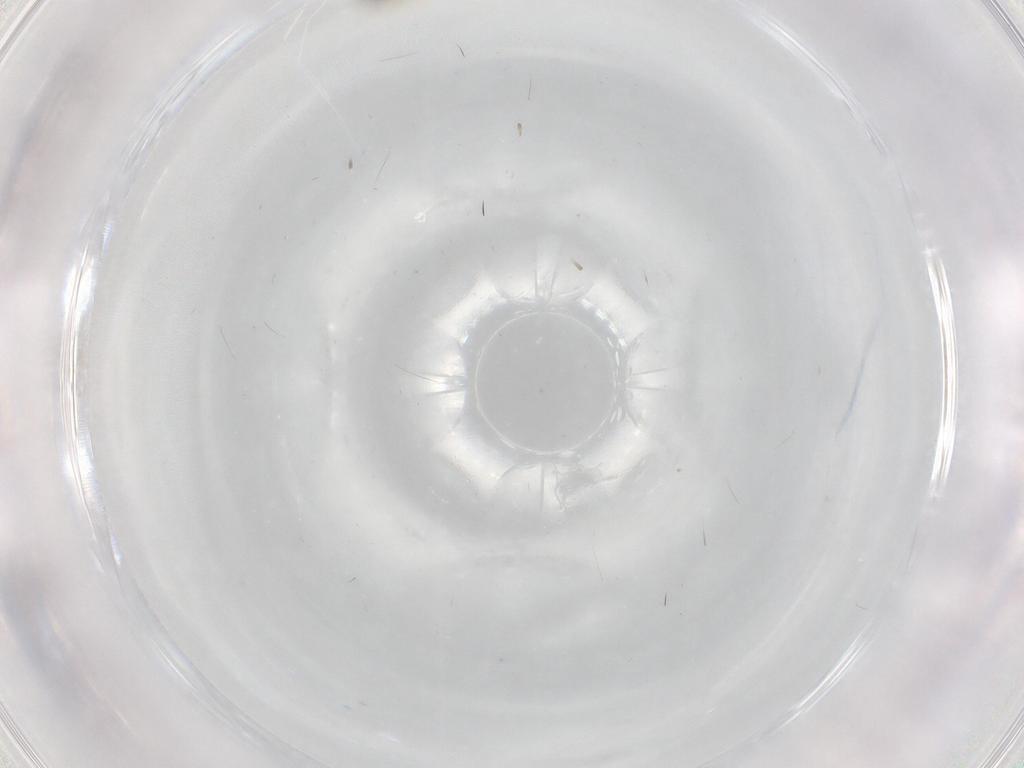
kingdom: Animalia
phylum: Arthropoda
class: Insecta
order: Diptera
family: Cecidomyiidae
